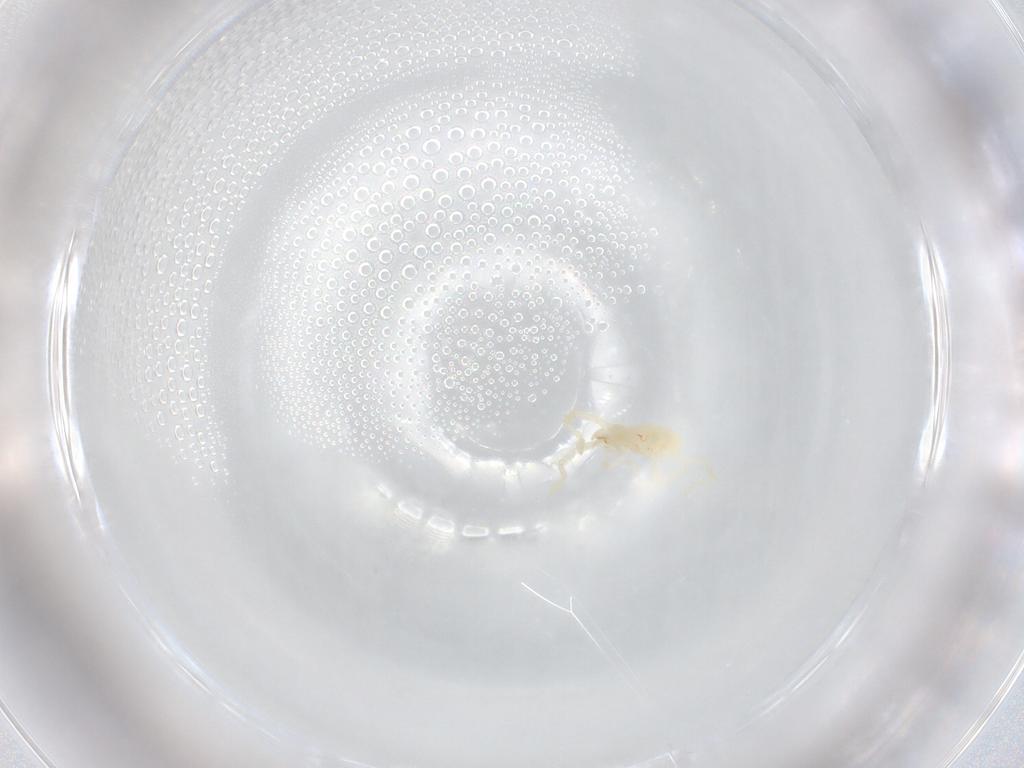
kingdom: Animalia
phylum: Arthropoda
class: Arachnida
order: Trombidiformes
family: Erythraeidae
